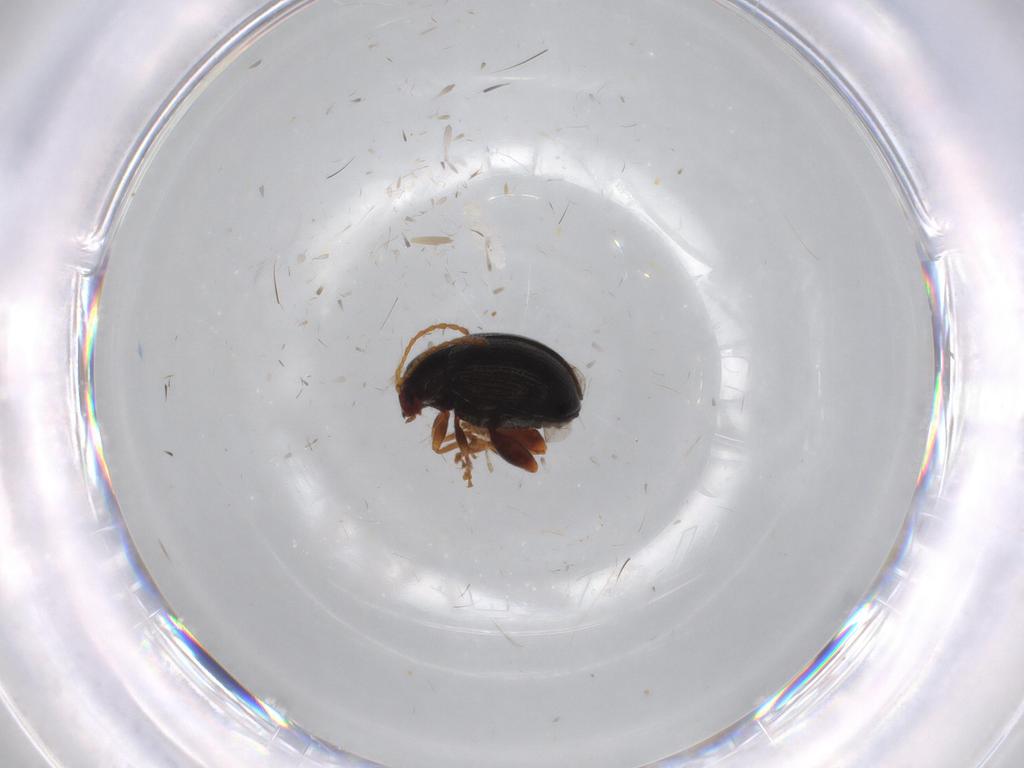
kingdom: Animalia
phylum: Arthropoda
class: Insecta
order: Coleoptera
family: Chrysomelidae
